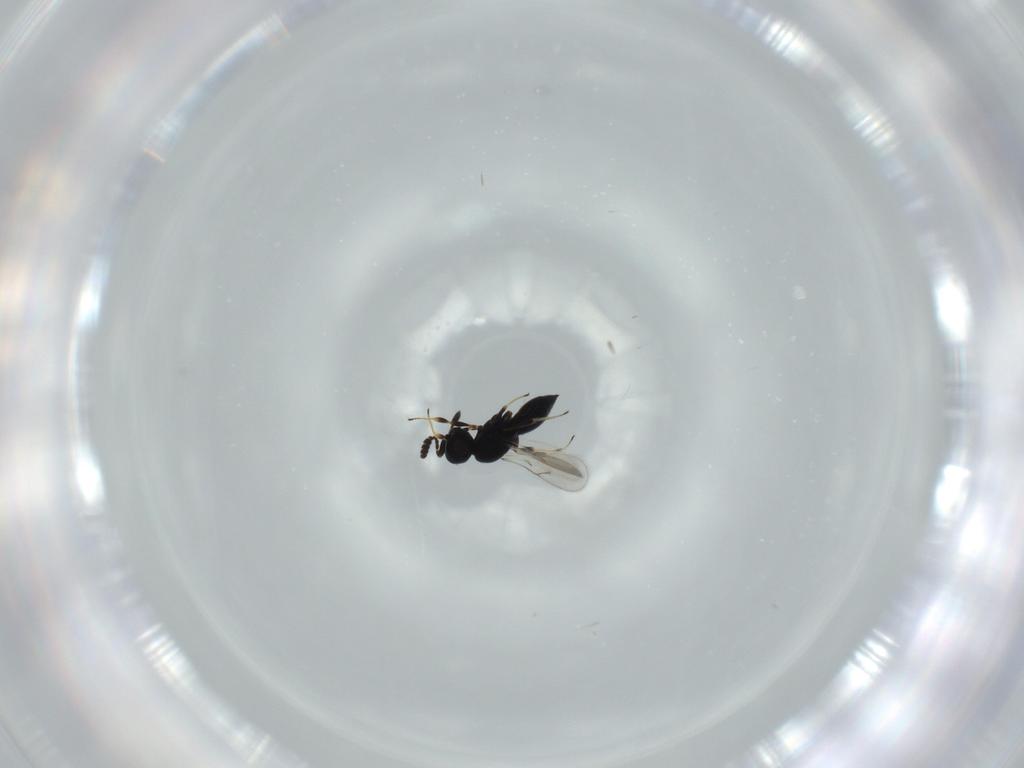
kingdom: Animalia
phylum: Arthropoda
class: Insecta
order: Hymenoptera
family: Scelionidae
